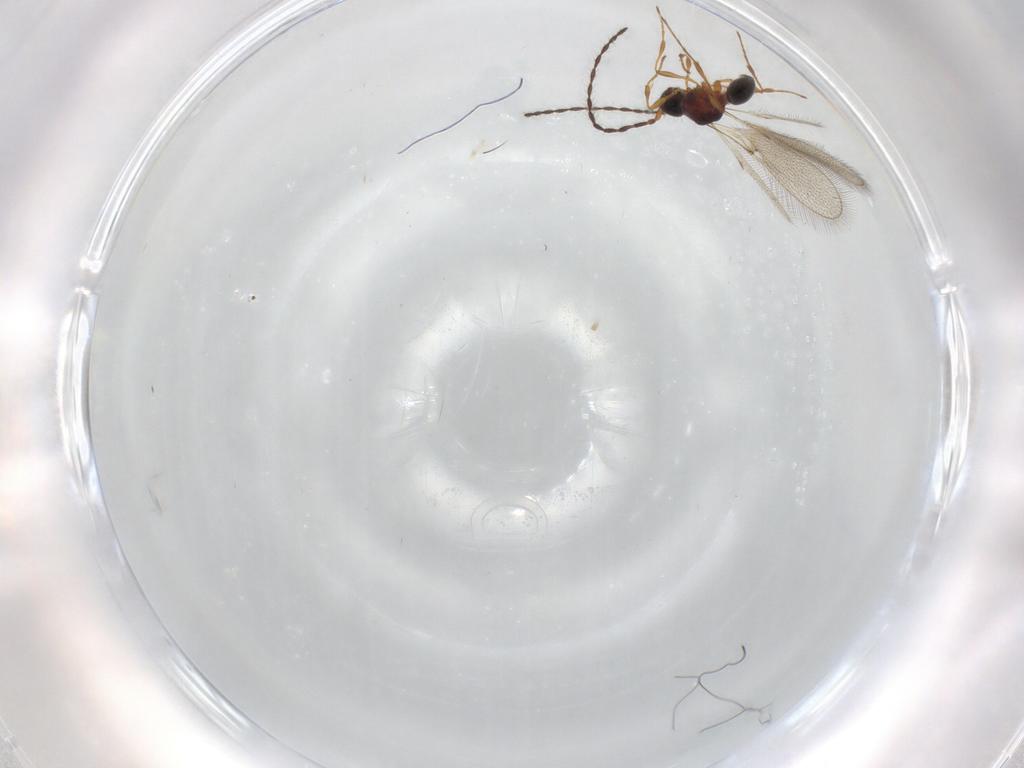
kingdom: Animalia
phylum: Arthropoda
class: Insecta
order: Hymenoptera
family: Diapriidae
